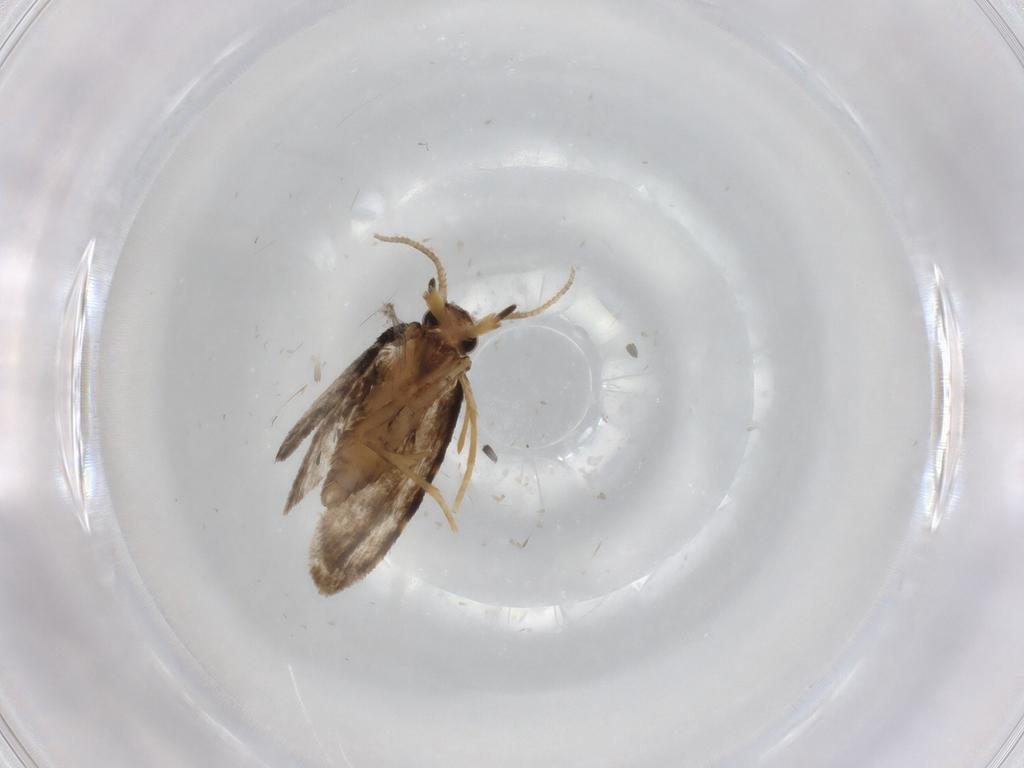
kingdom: Animalia
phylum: Arthropoda
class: Insecta
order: Lepidoptera
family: Psychidae
